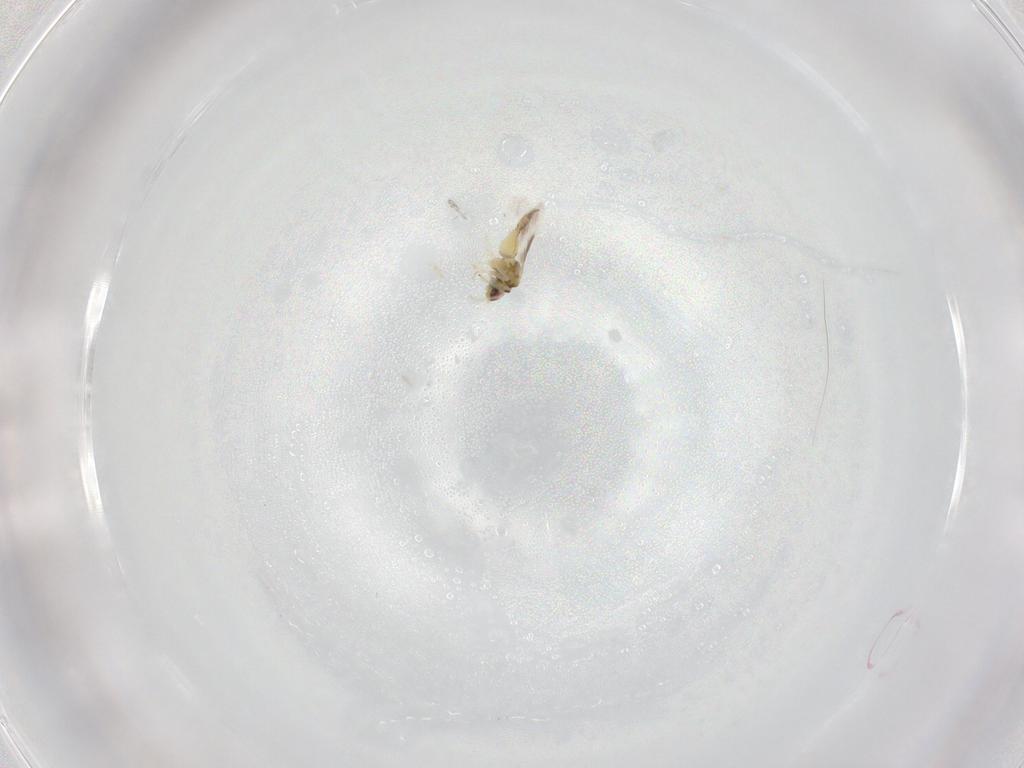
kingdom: Animalia
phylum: Arthropoda
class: Insecta
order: Hemiptera
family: Aleyrodidae
